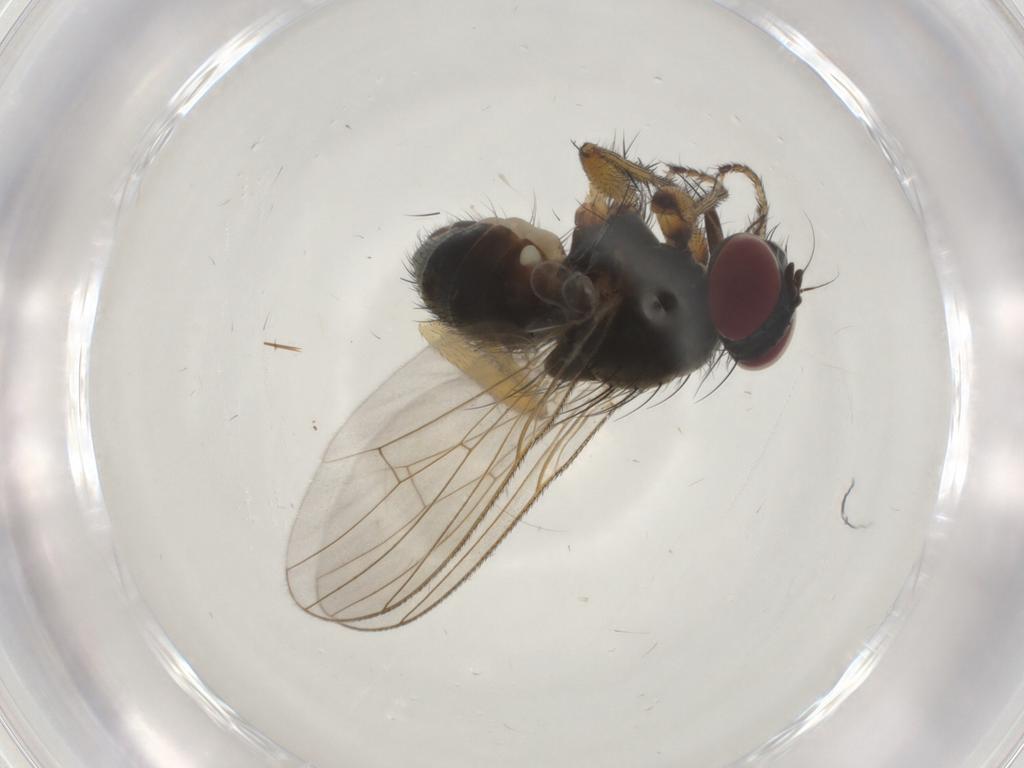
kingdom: Animalia
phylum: Arthropoda
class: Insecta
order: Diptera
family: Muscidae
